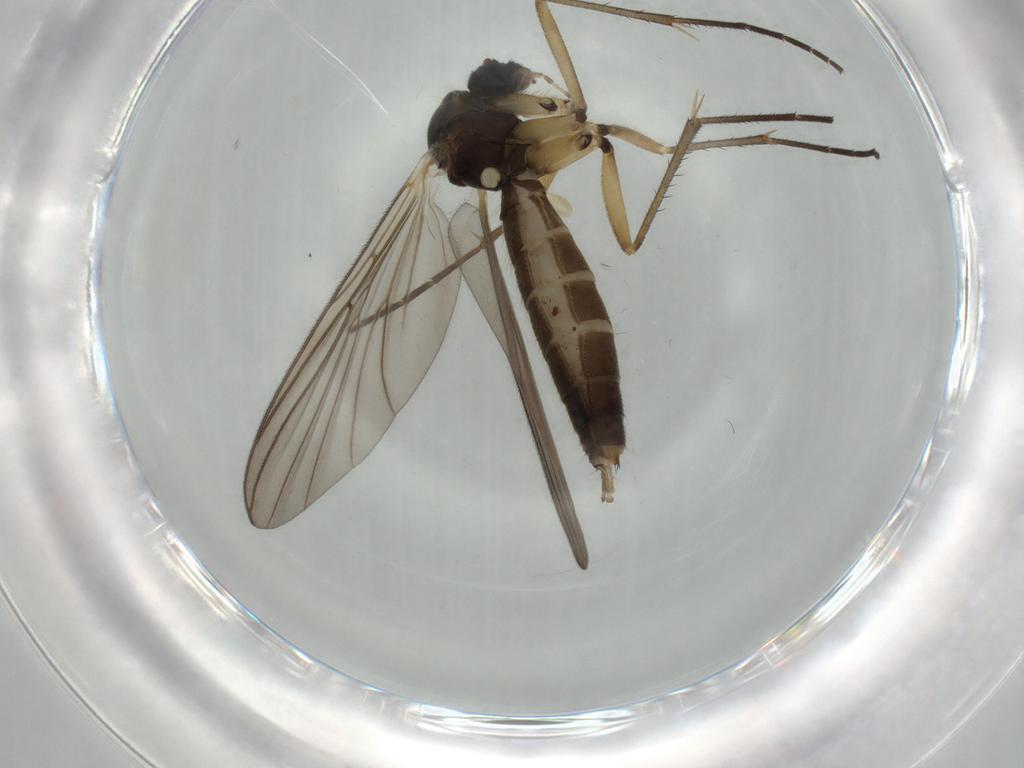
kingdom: Animalia
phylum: Arthropoda
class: Insecta
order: Diptera
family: Mycetophilidae
